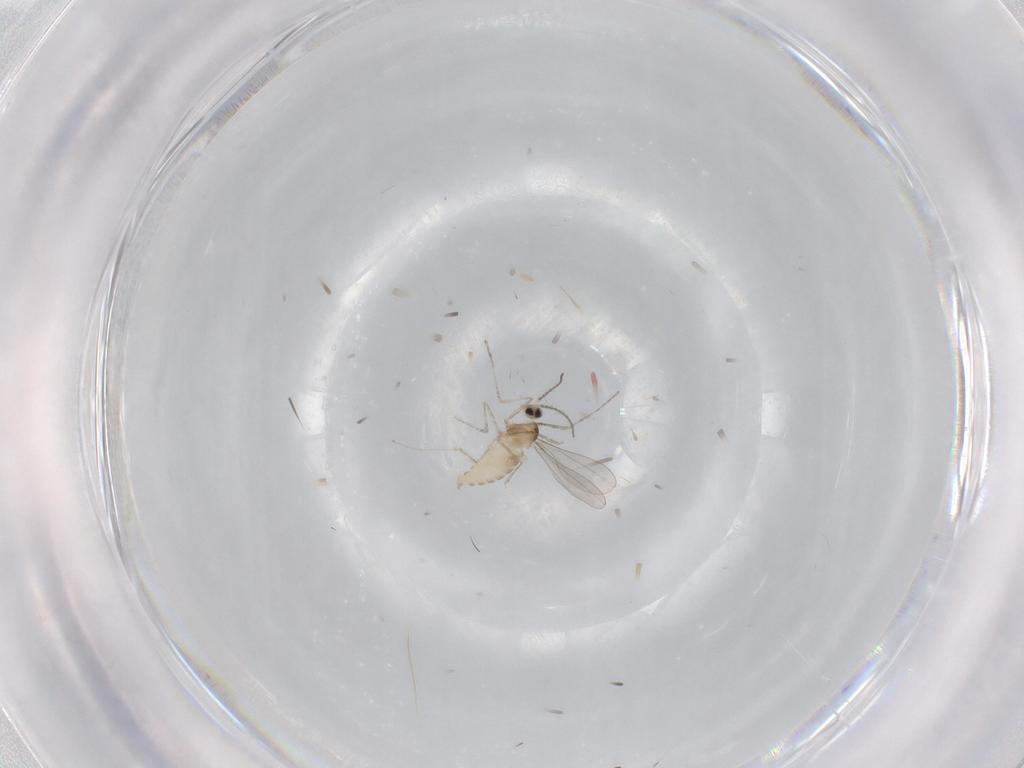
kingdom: Animalia
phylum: Arthropoda
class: Insecta
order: Diptera
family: Cecidomyiidae
